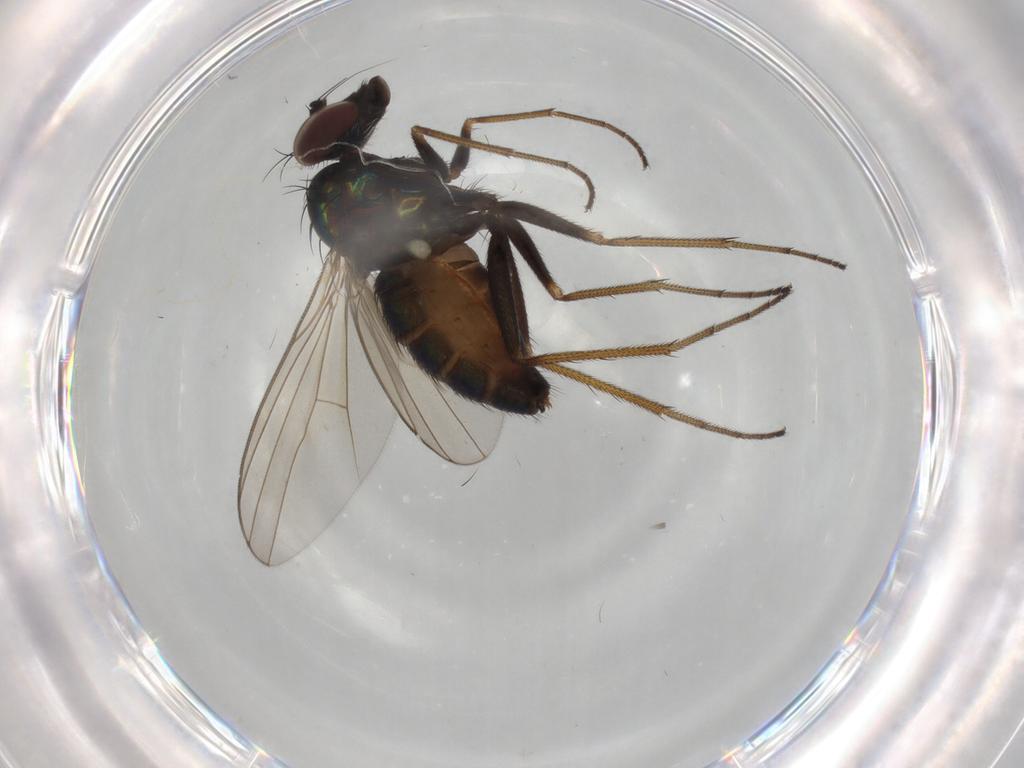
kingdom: Animalia
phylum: Arthropoda
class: Insecta
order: Diptera
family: Dolichopodidae
